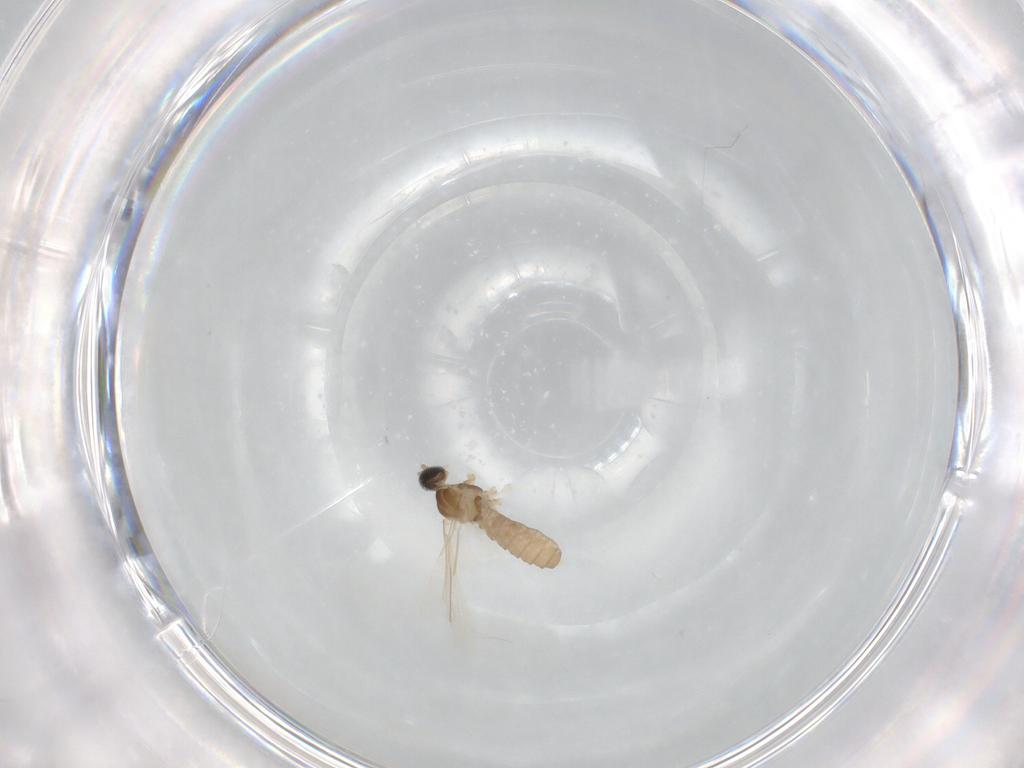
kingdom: Animalia
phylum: Arthropoda
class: Insecta
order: Diptera
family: Cecidomyiidae
